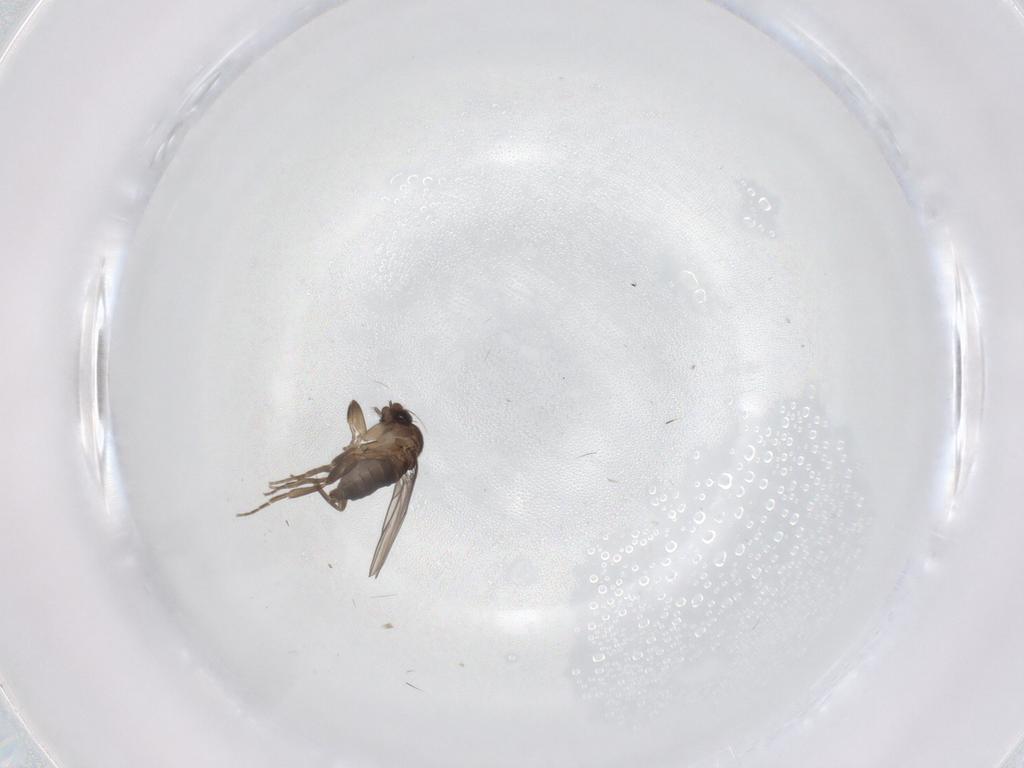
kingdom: Animalia
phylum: Arthropoda
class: Insecta
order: Diptera
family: Phoridae
